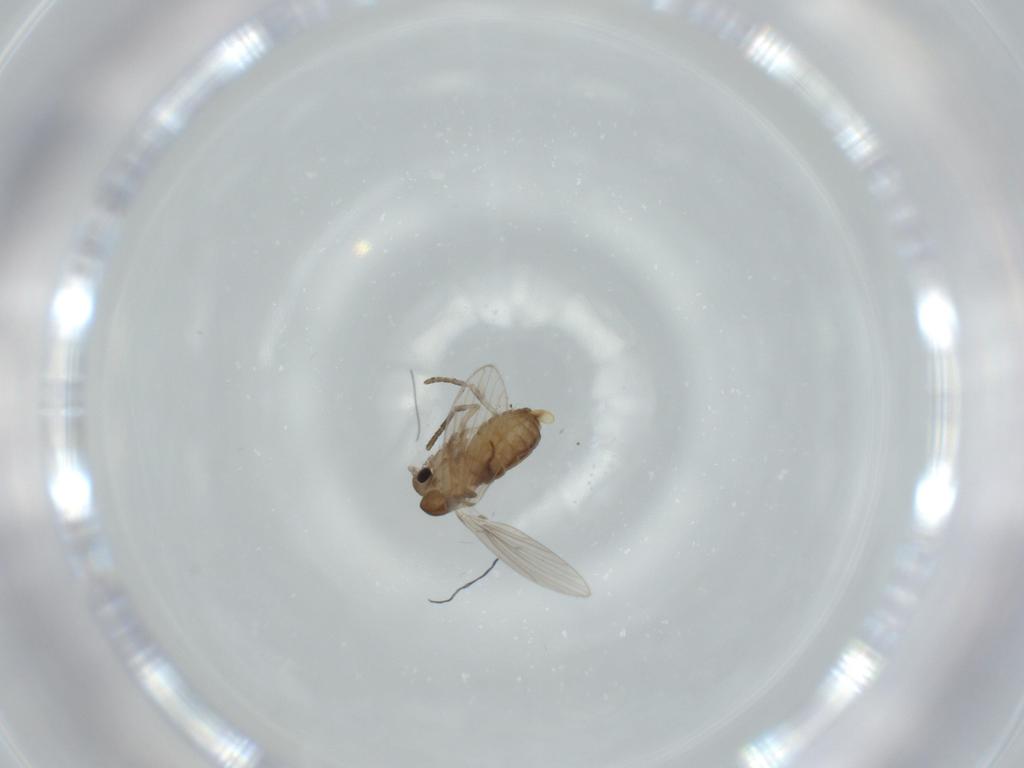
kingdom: Animalia
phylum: Arthropoda
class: Insecta
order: Diptera
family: Psychodidae
